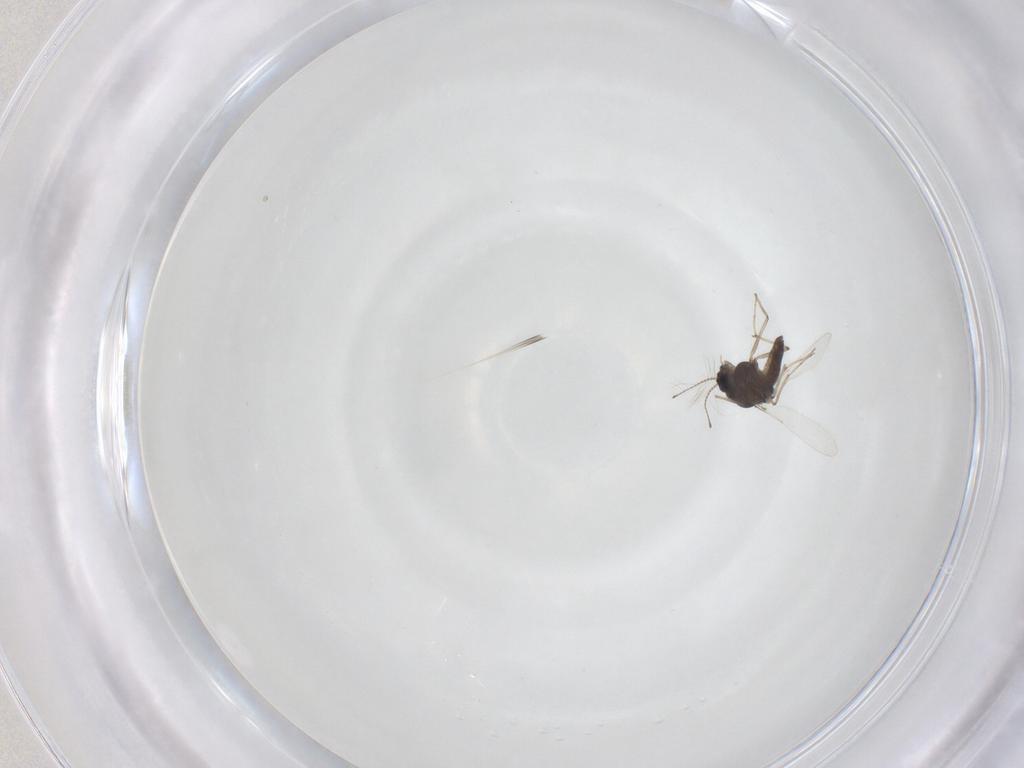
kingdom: Animalia
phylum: Arthropoda
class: Insecta
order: Diptera
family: Chironomidae
